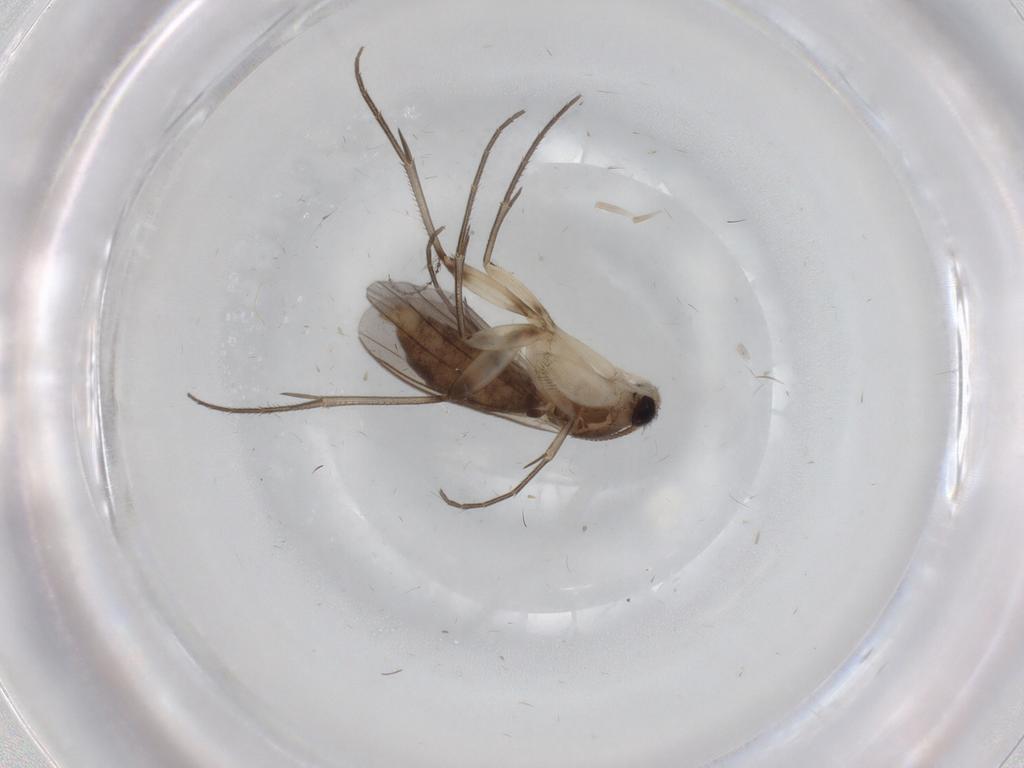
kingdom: Animalia
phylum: Arthropoda
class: Insecta
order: Diptera
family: Mycetophilidae
